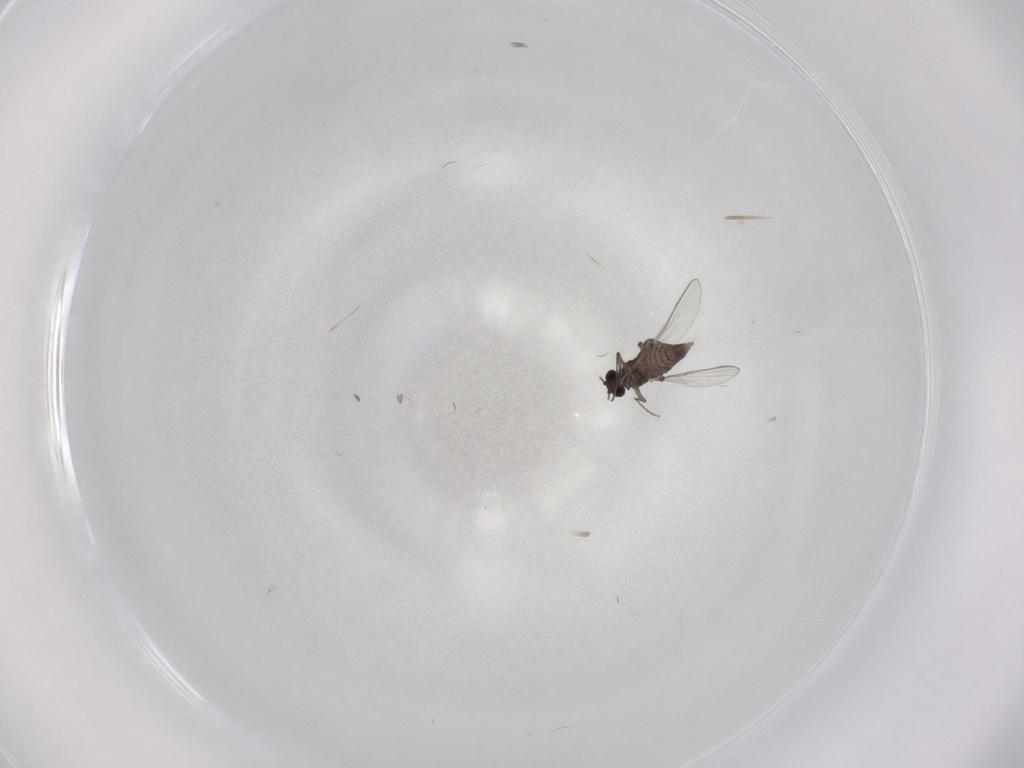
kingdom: Animalia
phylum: Arthropoda
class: Insecta
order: Diptera
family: Chironomidae
